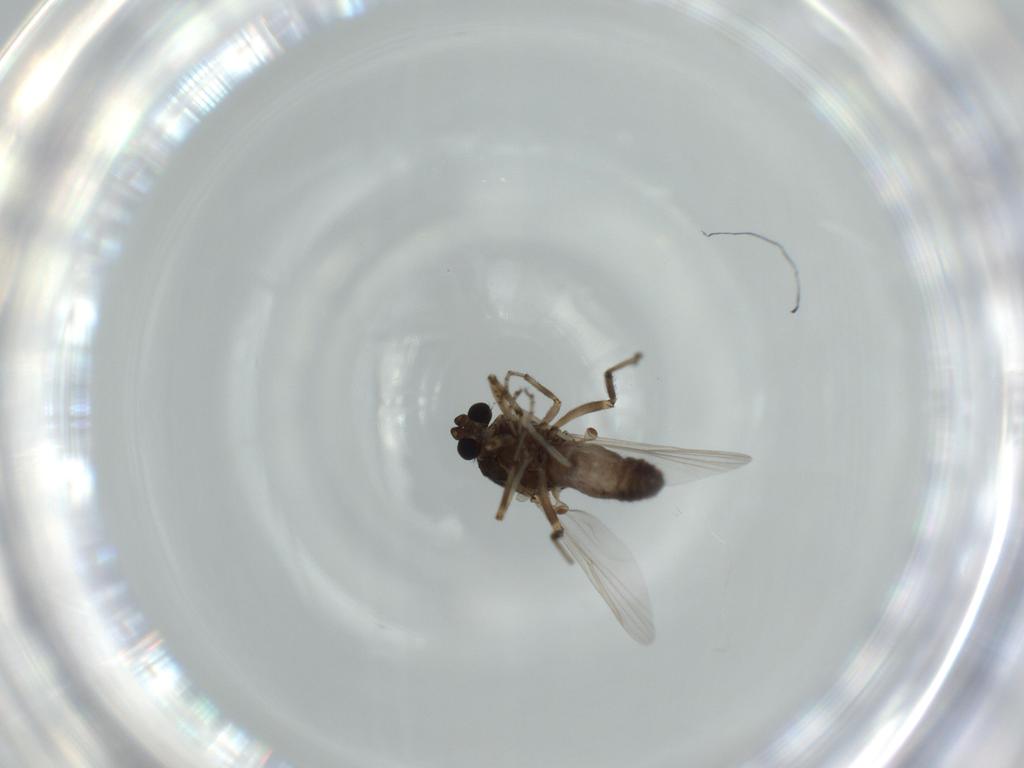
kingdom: Animalia
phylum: Arthropoda
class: Insecta
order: Diptera
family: Ceratopogonidae
